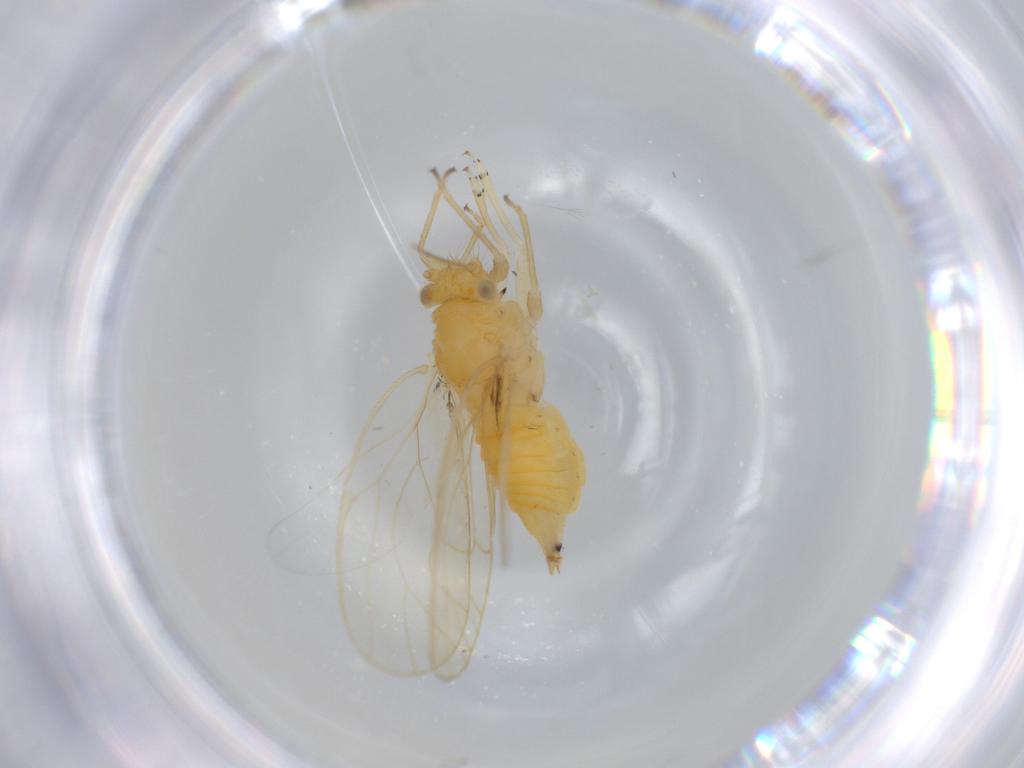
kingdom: Animalia
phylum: Arthropoda
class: Insecta
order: Hemiptera
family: Psyllidae
